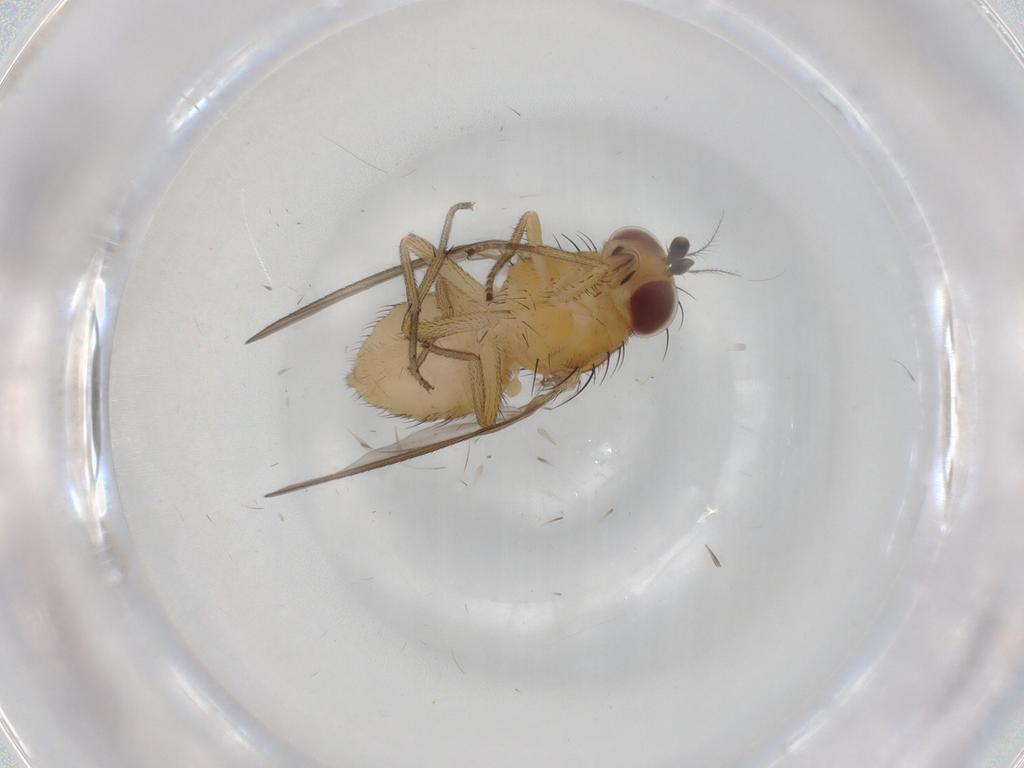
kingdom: Animalia
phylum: Arthropoda
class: Insecta
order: Diptera
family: Lauxaniidae
